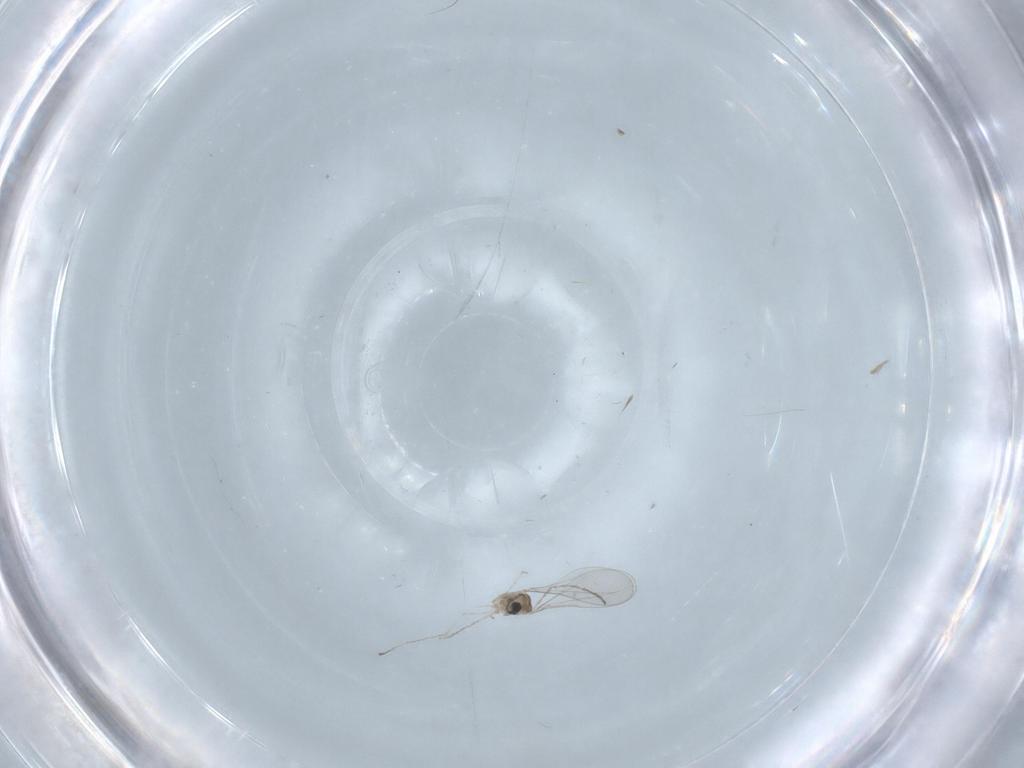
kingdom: Animalia
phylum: Arthropoda
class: Insecta
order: Diptera
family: Cecidomyiidae
